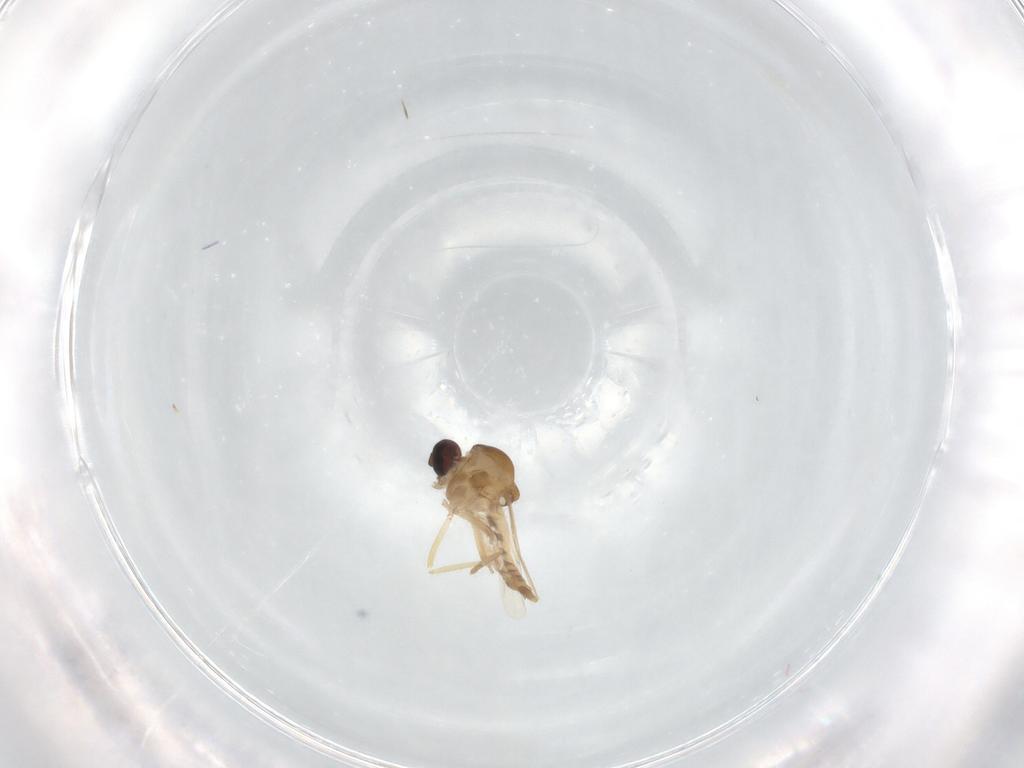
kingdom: Animalia
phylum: Arthropoda
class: Insecta
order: Diptera
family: Ceratopogonidae
